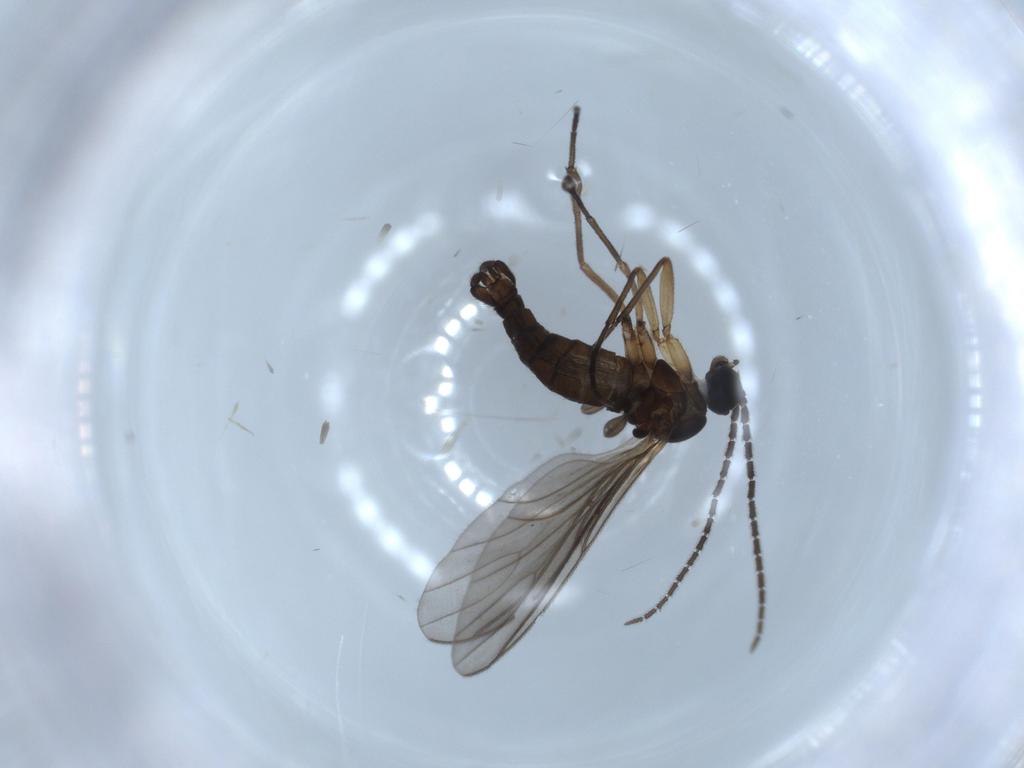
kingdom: Animalia
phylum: Arthropoda
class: Insecta
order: Diptera
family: Sciaridae
